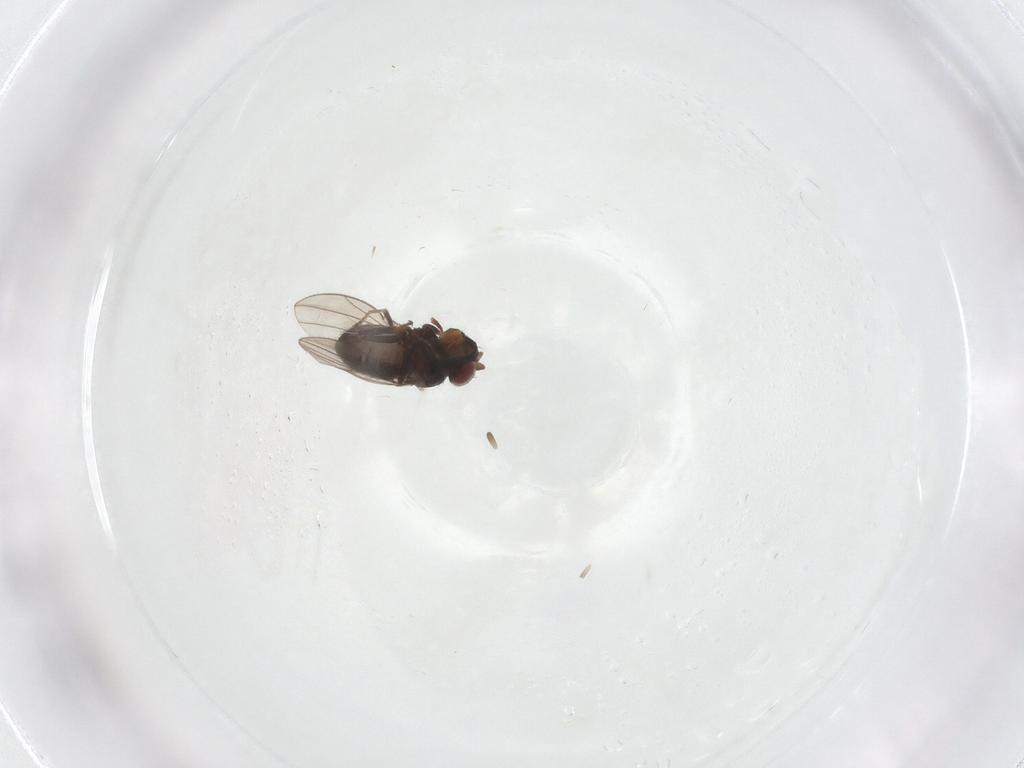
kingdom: Animalia
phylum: Arthropoda
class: Insecta
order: Diptera
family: Ephydridae
